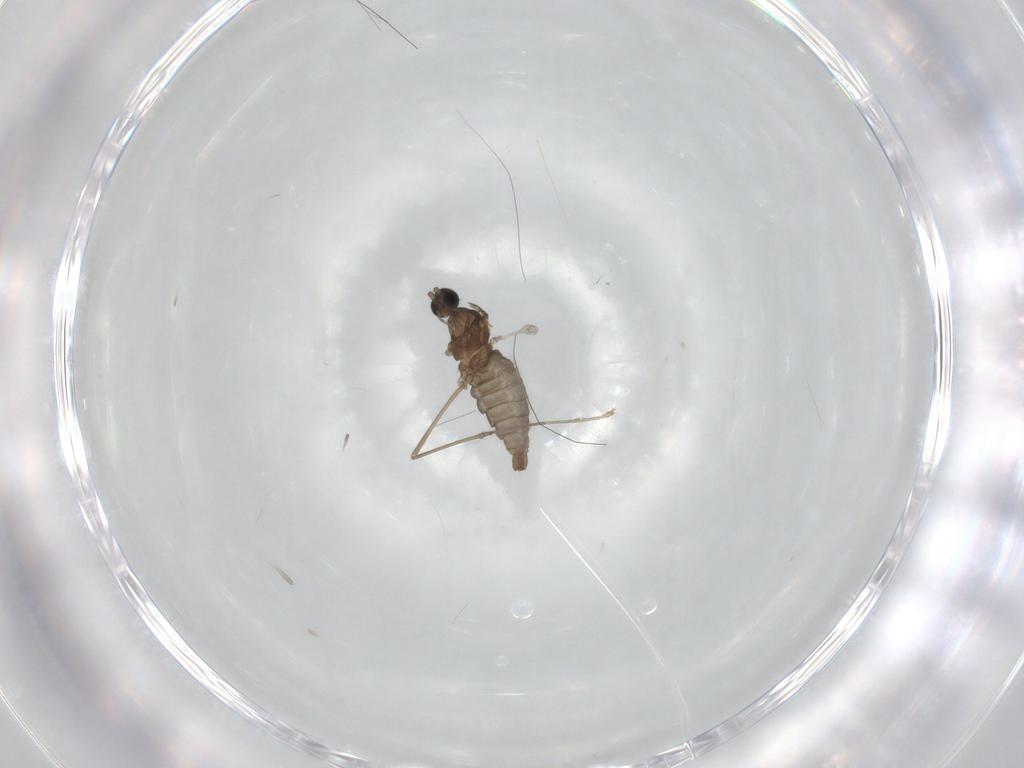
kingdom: Animalia
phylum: Arthropoda
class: Insecta
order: Diptera
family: Cecidomyiidae
